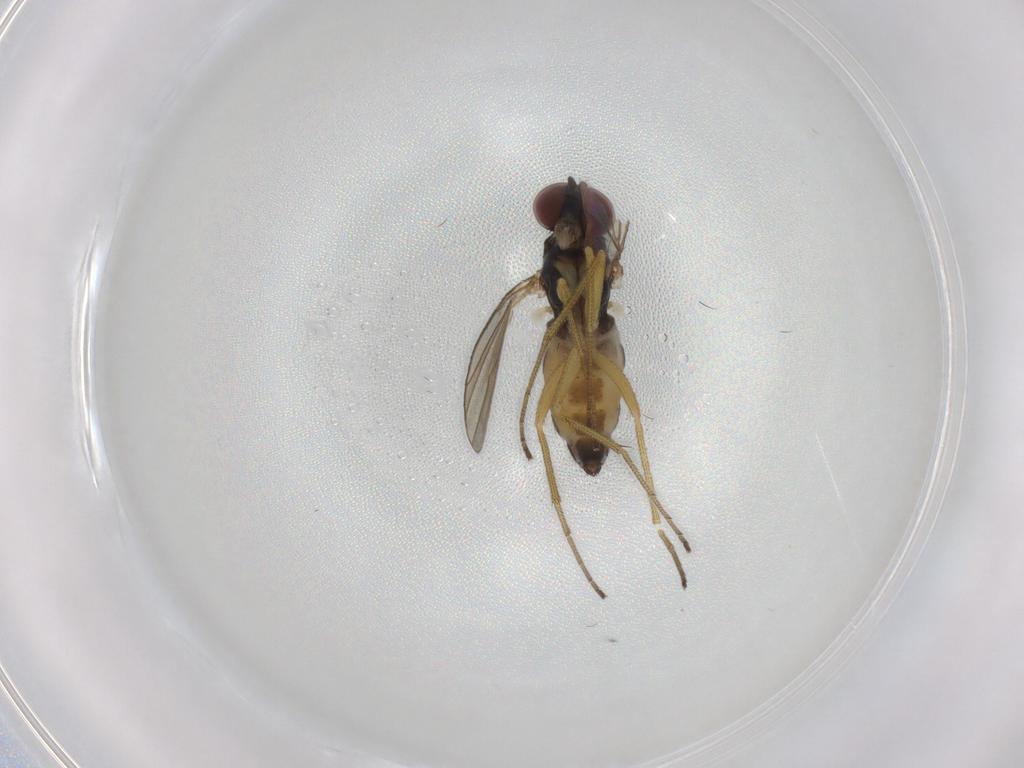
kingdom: Animalia
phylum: Arthropoda
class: Insecta
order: Diptera
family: Dolichopodidae
